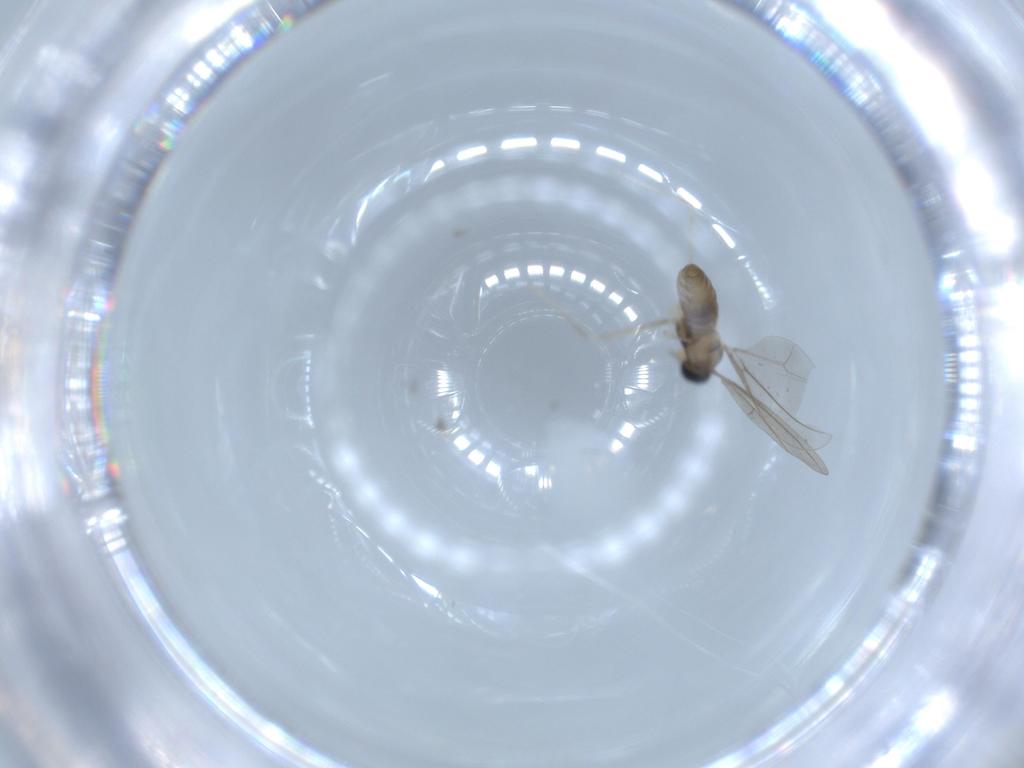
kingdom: Animalia
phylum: Arthropoda
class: Insecta
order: Diptera
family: Cecidomyiidae
